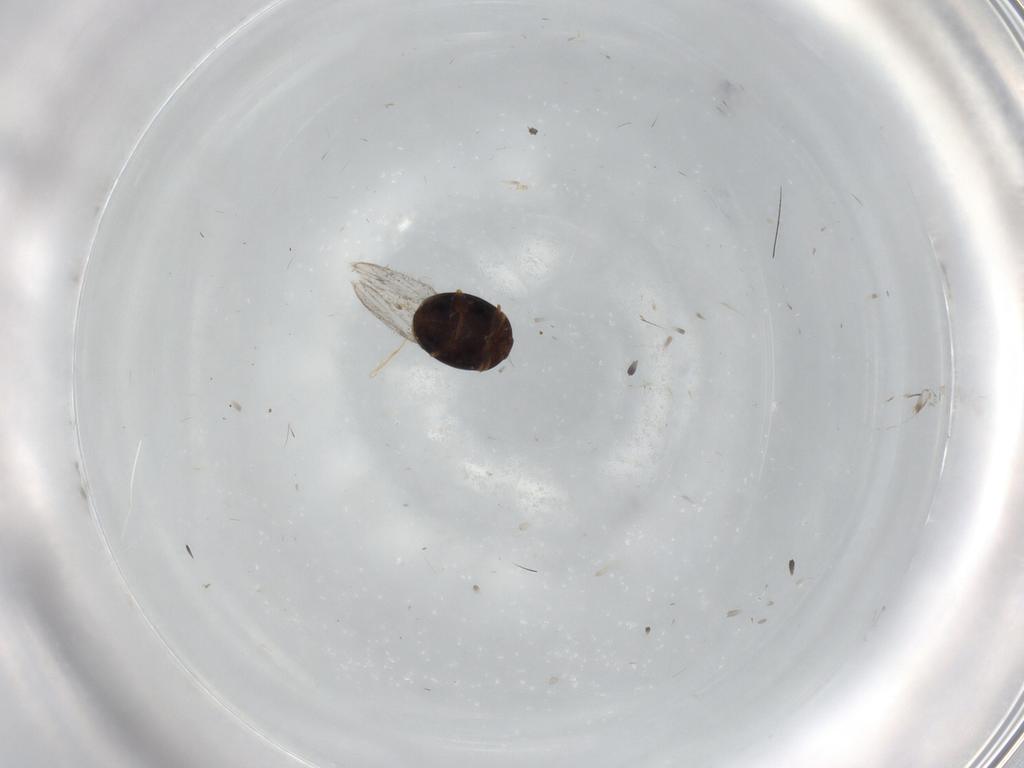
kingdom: Animalia
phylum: Arthropoda
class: Insecta
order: Coleoptera
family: Corylophidae
